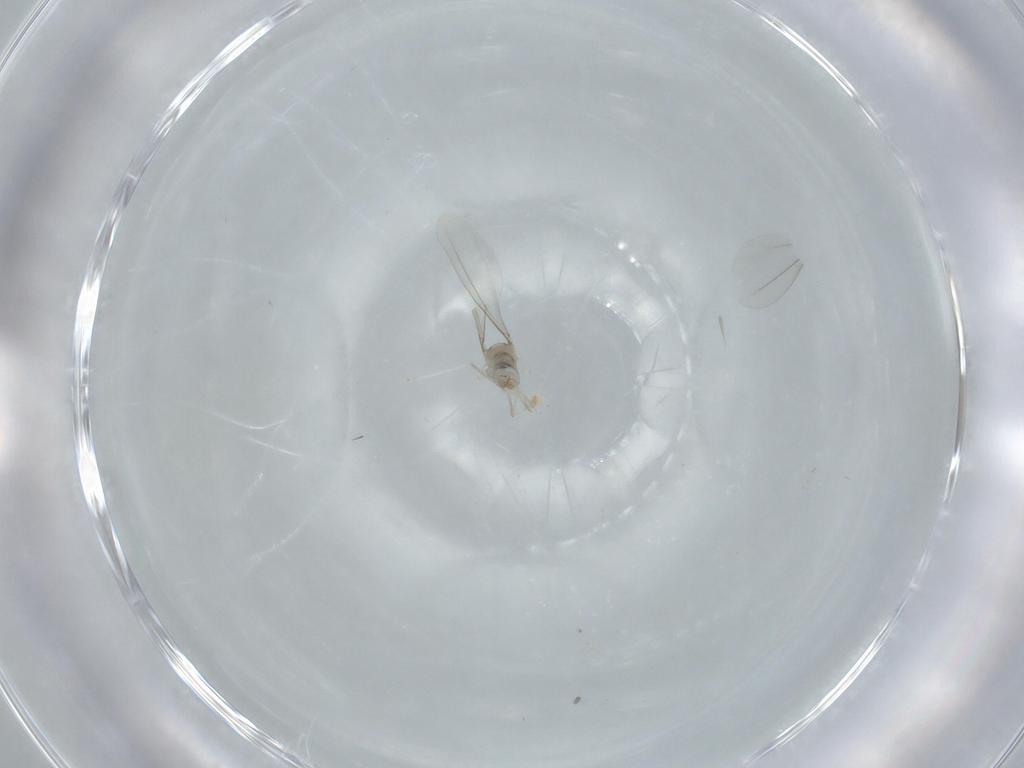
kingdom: Animalia
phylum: Arthropoda
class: Insecta
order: Diptera
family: Cecidomyiidae
